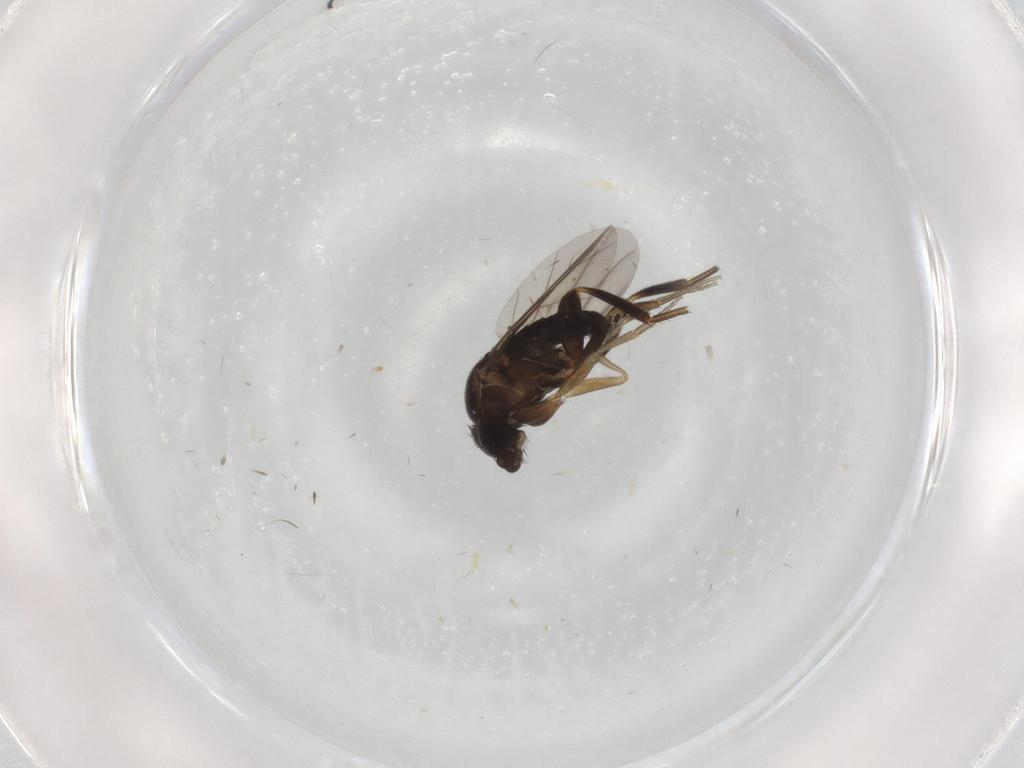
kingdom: Animalia
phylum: Arthropoda
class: Insecta
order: Diptera
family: Phoridae
